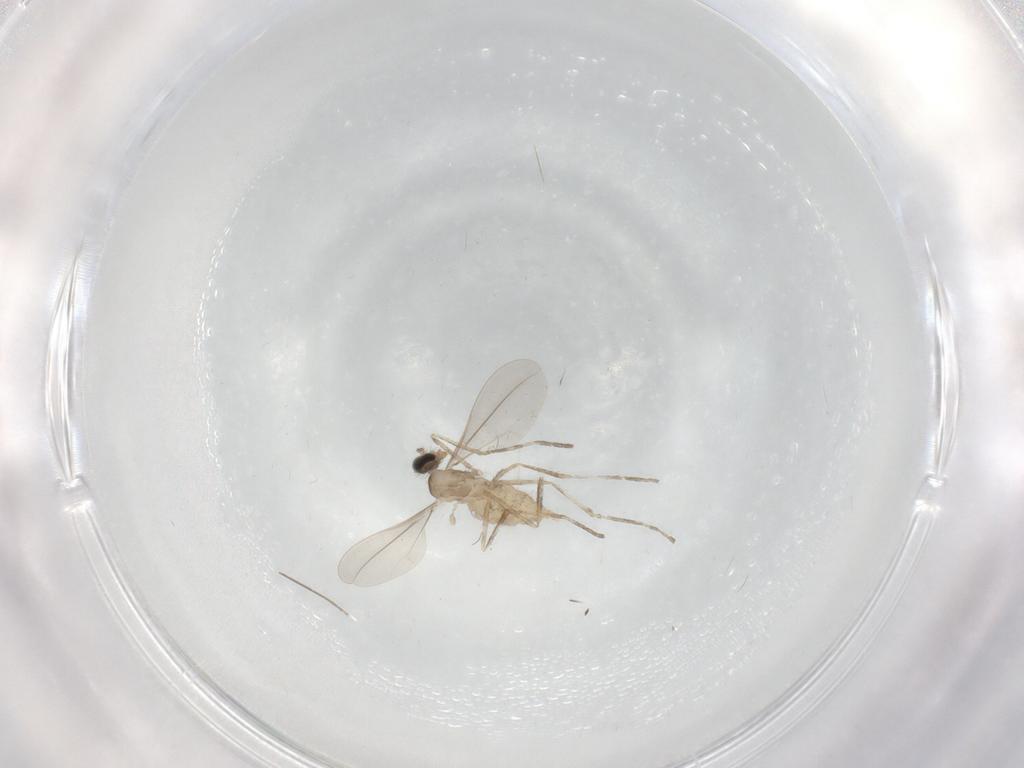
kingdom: Animalia
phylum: Arthropoda
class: Insecta
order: Diptera
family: Cecidomyiidae
